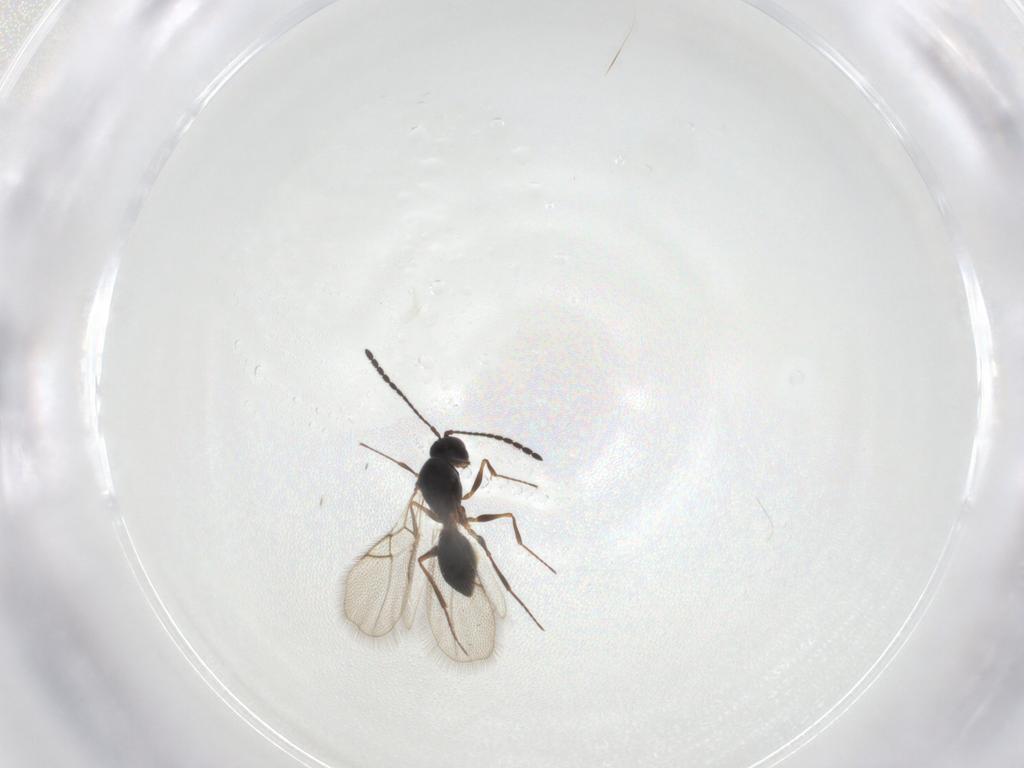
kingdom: Animalia
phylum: Arthropoda
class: Insecta
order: Hymenoptera
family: Figitidae
